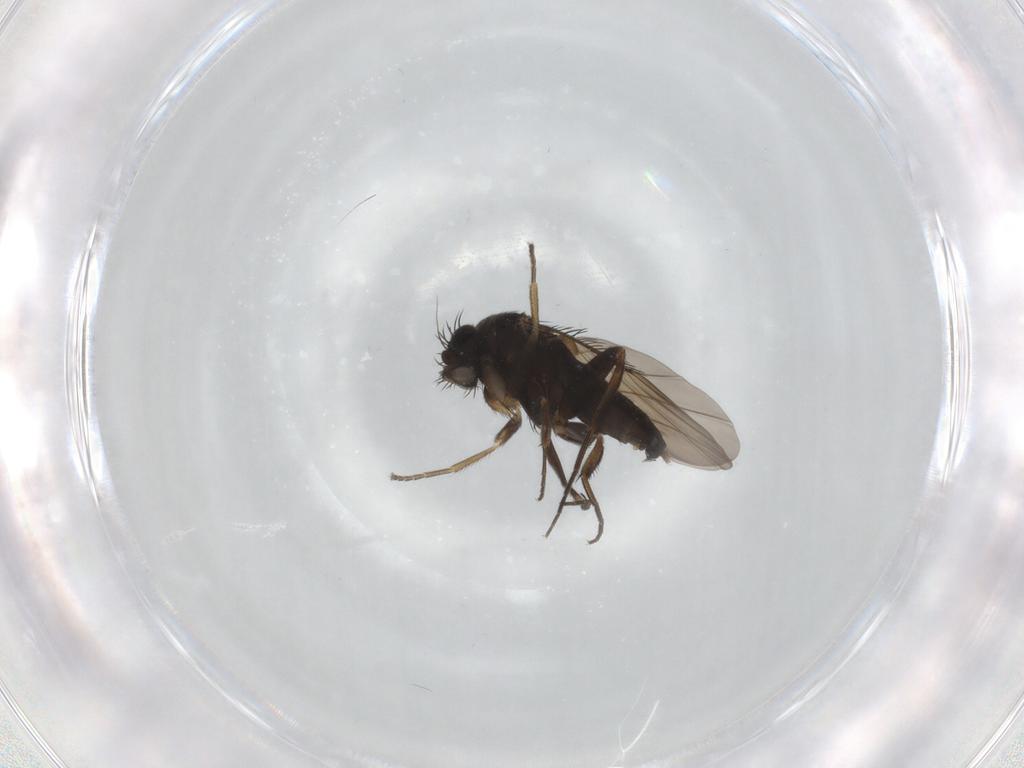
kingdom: Animalia
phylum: Arthropoda
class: Insecta
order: Diptera
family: Phoridae
